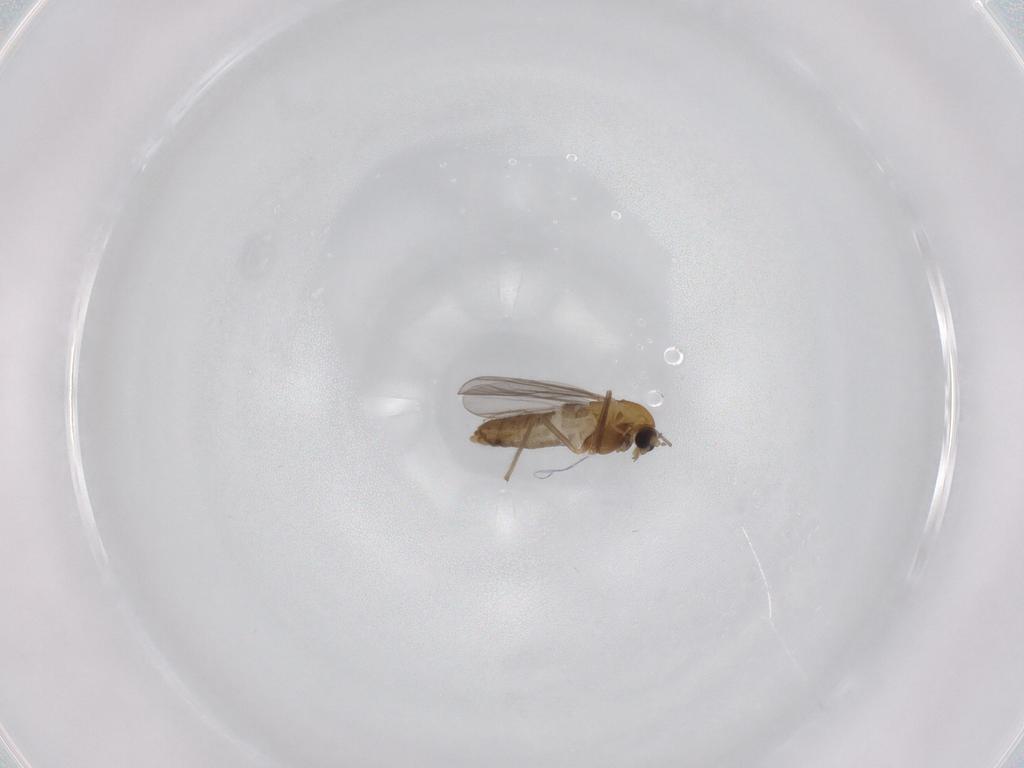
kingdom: Animalia
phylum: Arthropoda
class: Insecta
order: Diptera
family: Chironomidae
